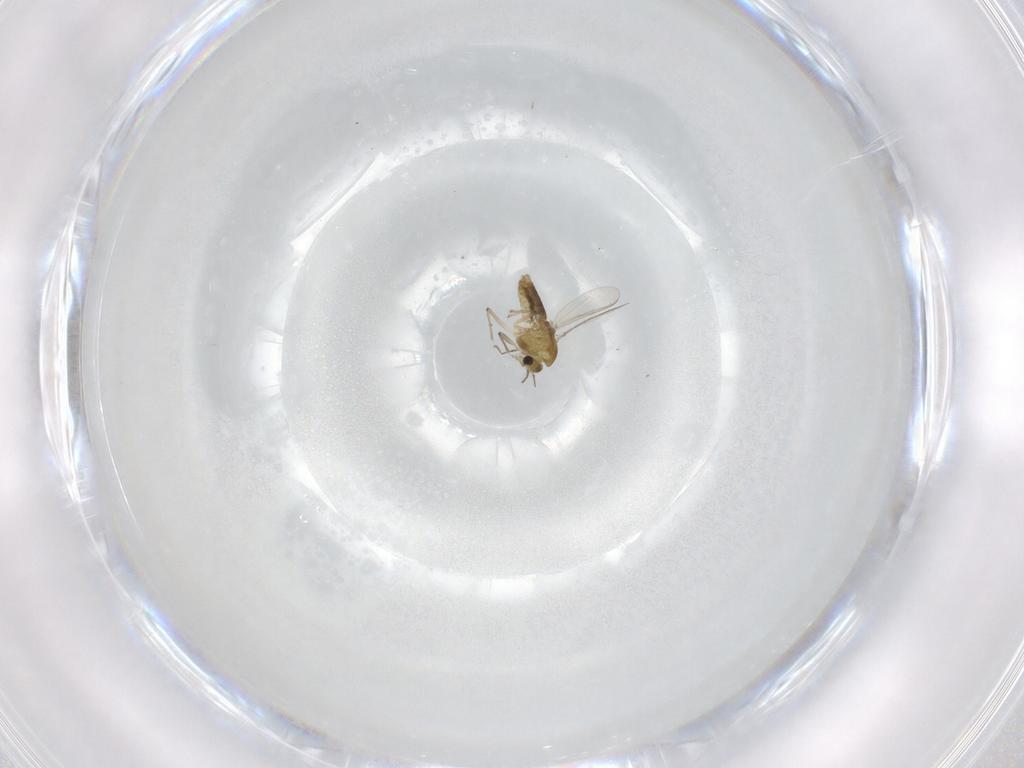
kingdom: Animalia
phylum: Arthropoda
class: Insecta
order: Diptera
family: Chironomidae
